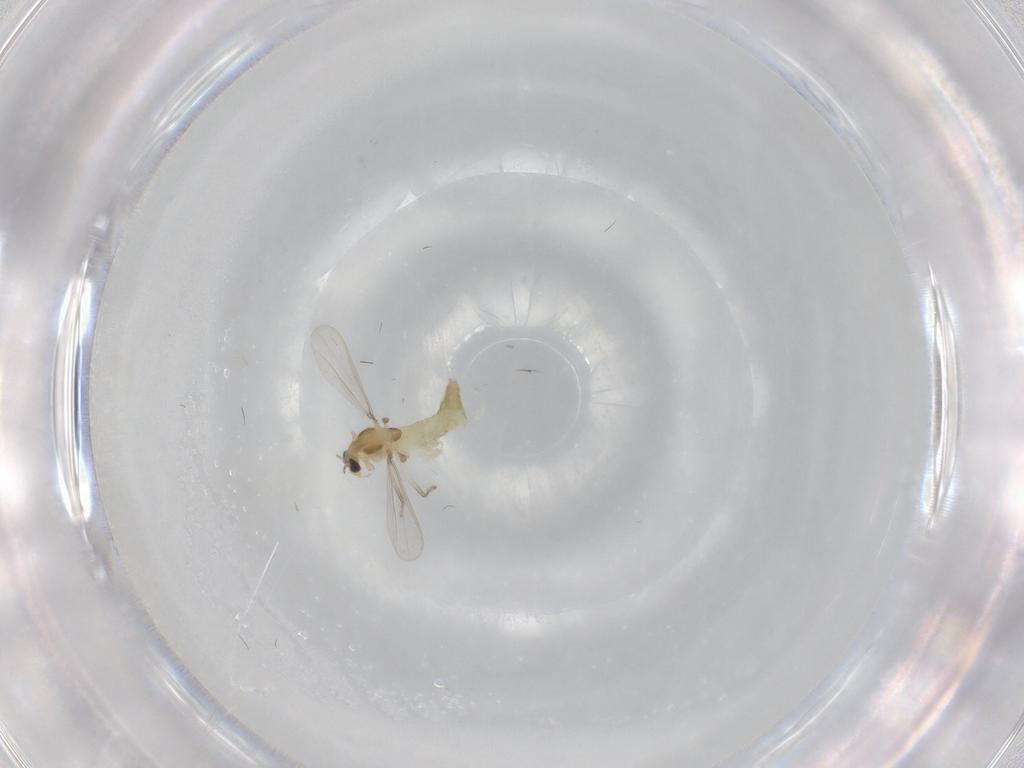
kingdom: Animalia
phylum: Arthropoda
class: Insecta
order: Diptera
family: Chironomidae
